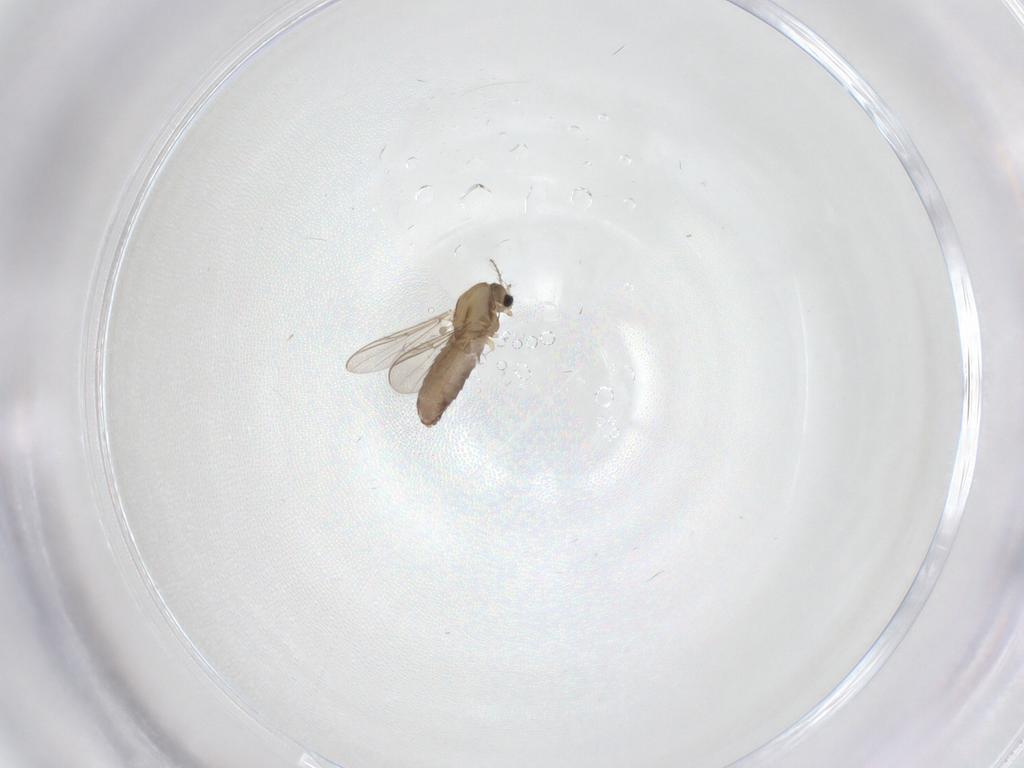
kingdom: Animalia
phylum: Arthropoda
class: Insecta
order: Diptera
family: Chironomidae
